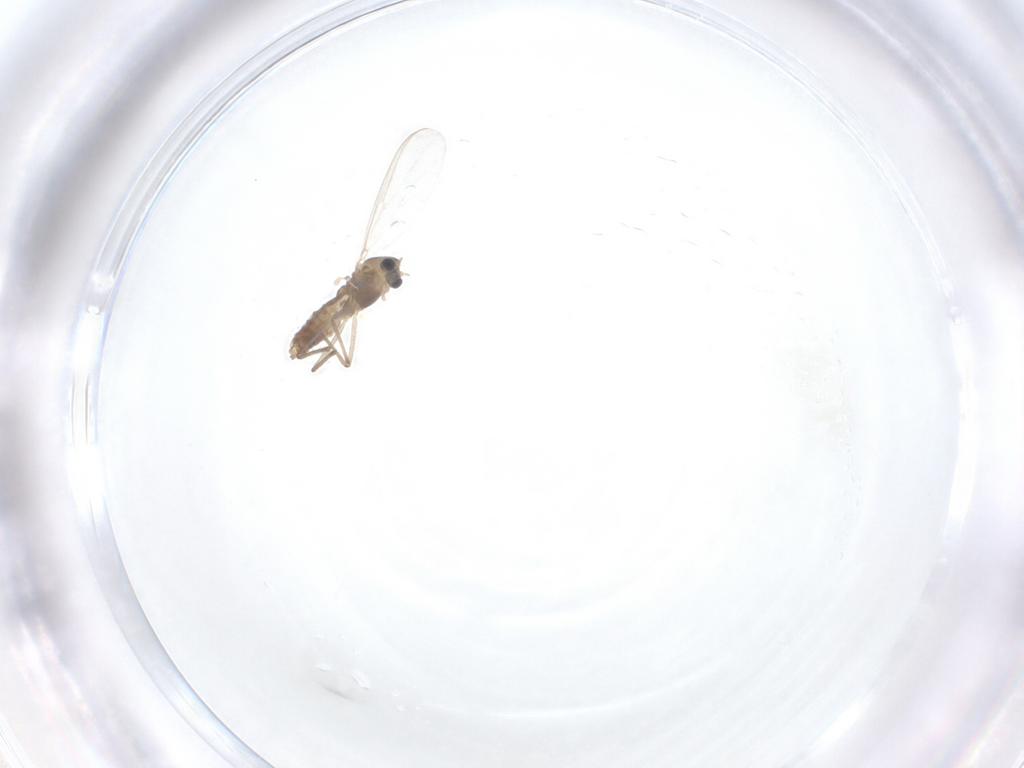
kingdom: Animalia
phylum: Arthropoda
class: Insecta
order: Diptera
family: Chironomidae
